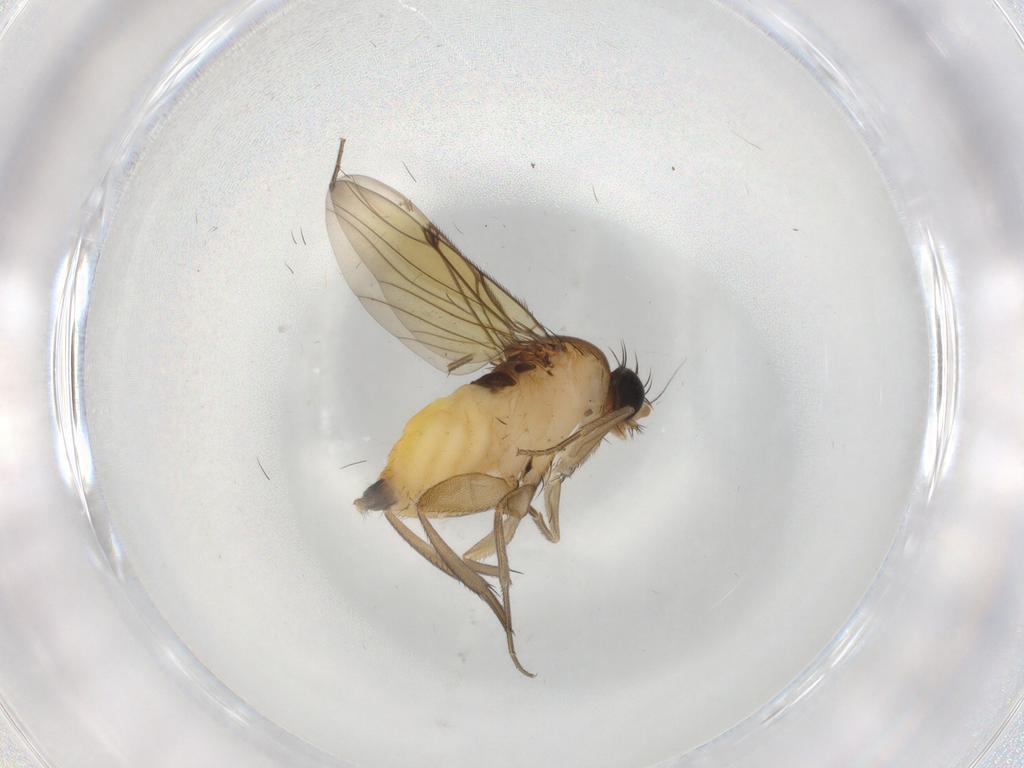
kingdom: Animalia
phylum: Arthropoda
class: Insecta
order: Diptera
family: Phoridae
